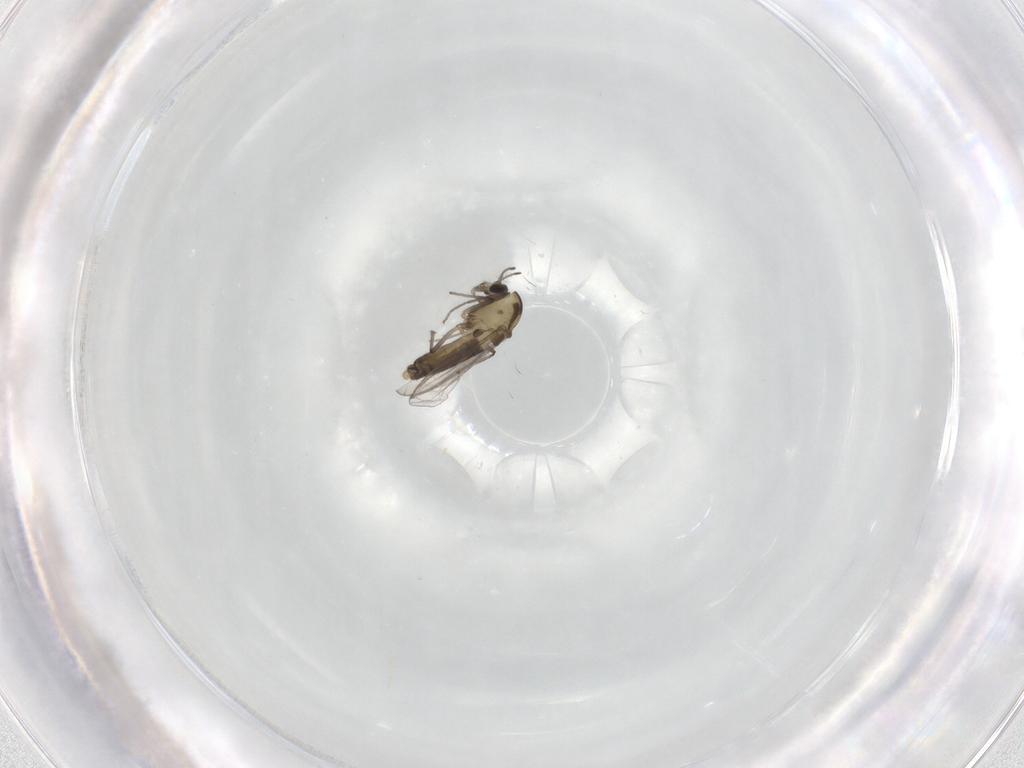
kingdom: Animalia
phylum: Arthropoda
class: Insecta
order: Diptera
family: Chironomidae
